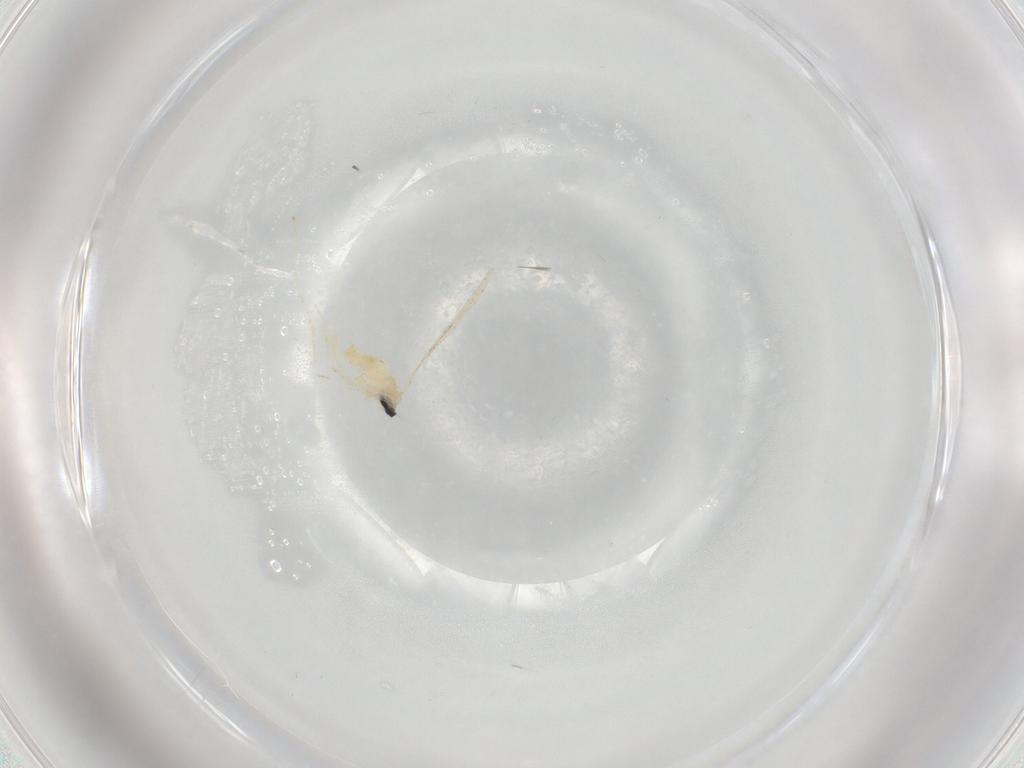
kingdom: Animalia
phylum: Arthropoda
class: Insecta
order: Diptera
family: Cecidomyiidae
